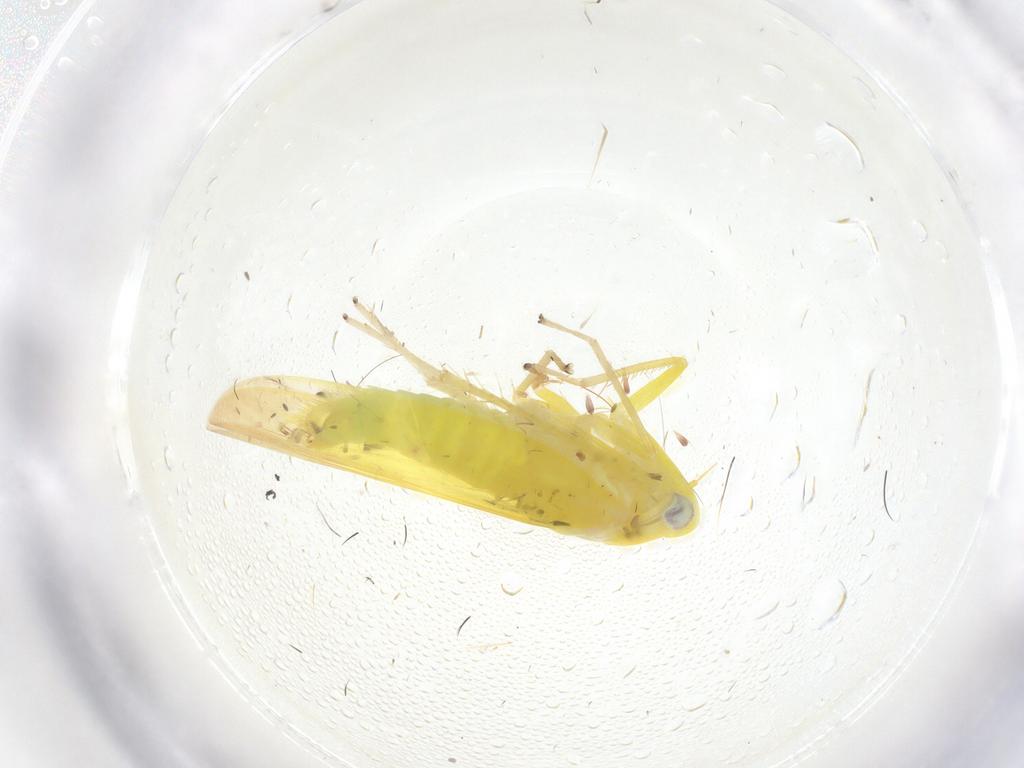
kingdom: Animalia
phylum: Arthropoda
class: Insecta
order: Hemiptera
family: Cicadellidae
